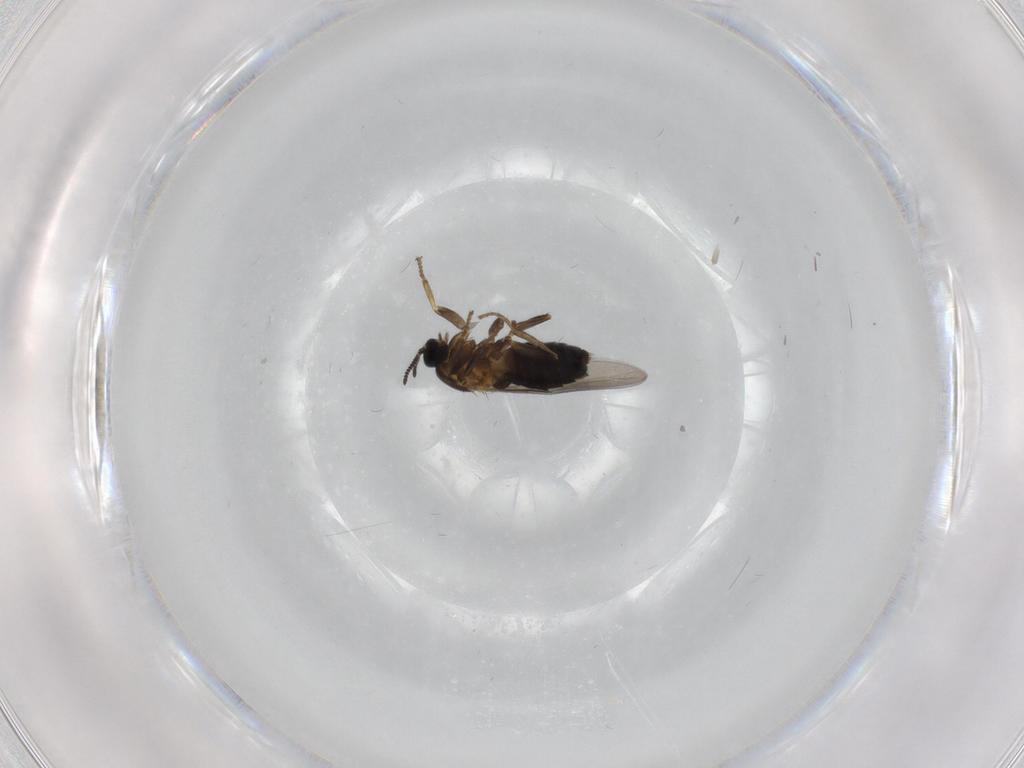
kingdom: Animalia
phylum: Arthropoda
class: Insecta
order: Diptera
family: Scatopsidae
